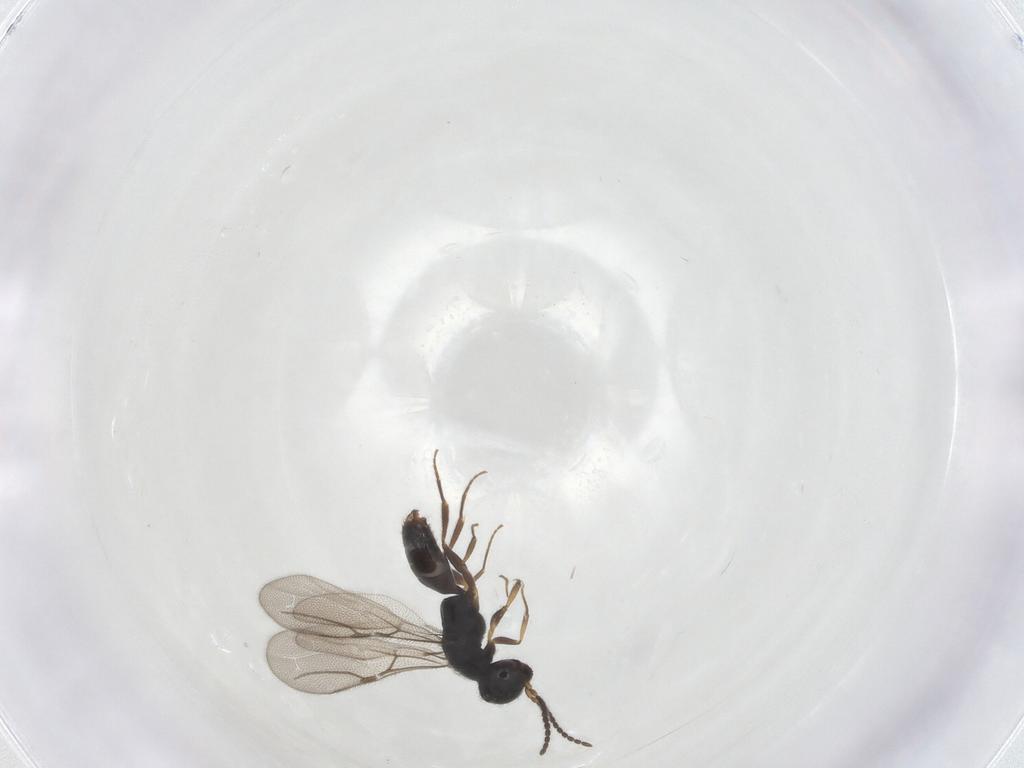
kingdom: Animalia
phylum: Arthropoda
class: Insecta
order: Hymenoptera
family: Bethylidae
